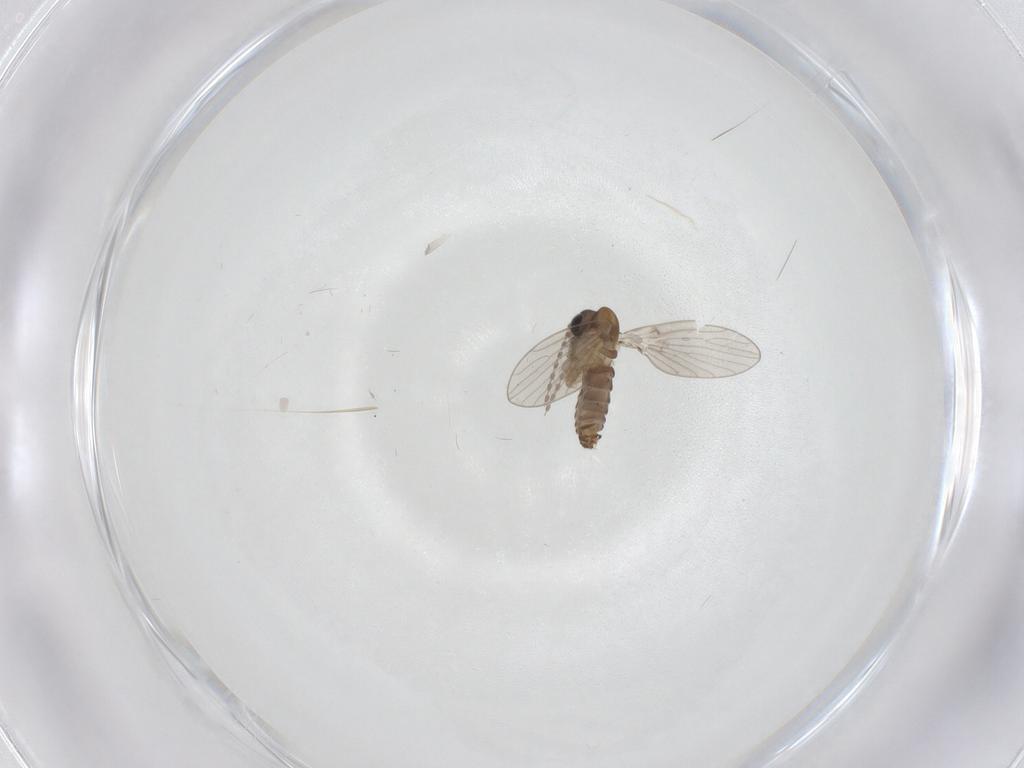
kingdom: Animalia
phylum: Arthropoda
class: Insecta
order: Diptera
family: Psychodidae
